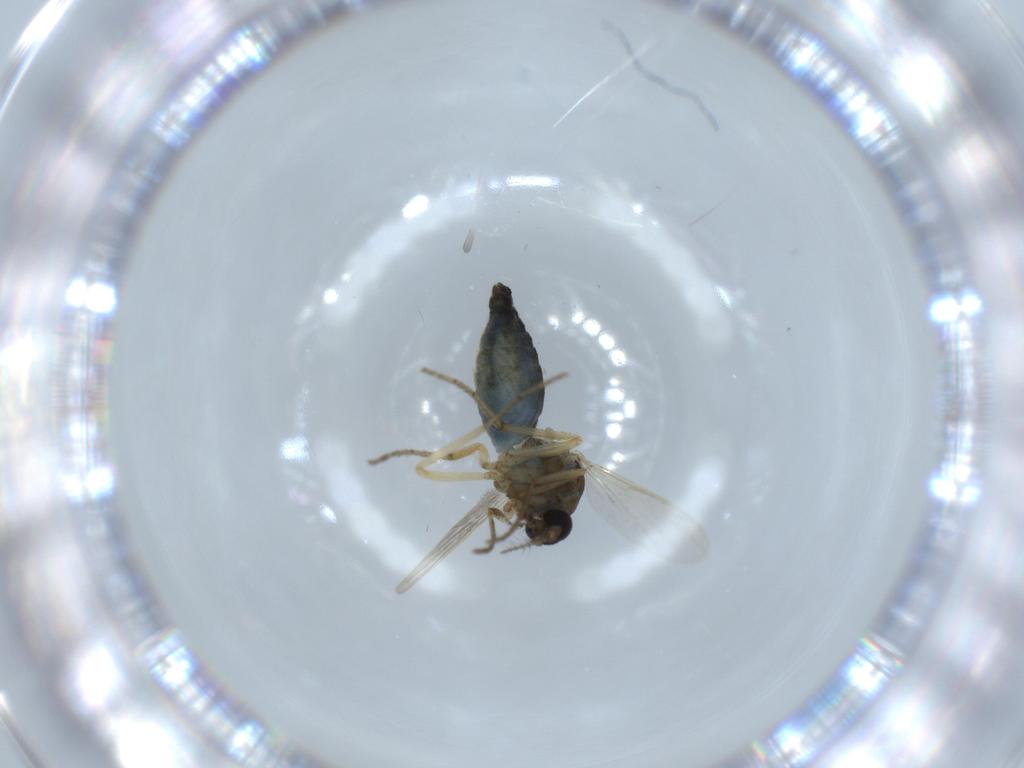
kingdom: Animalia
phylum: Arthropoda
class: Insecta
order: Diptera
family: Ceratopogonidae
